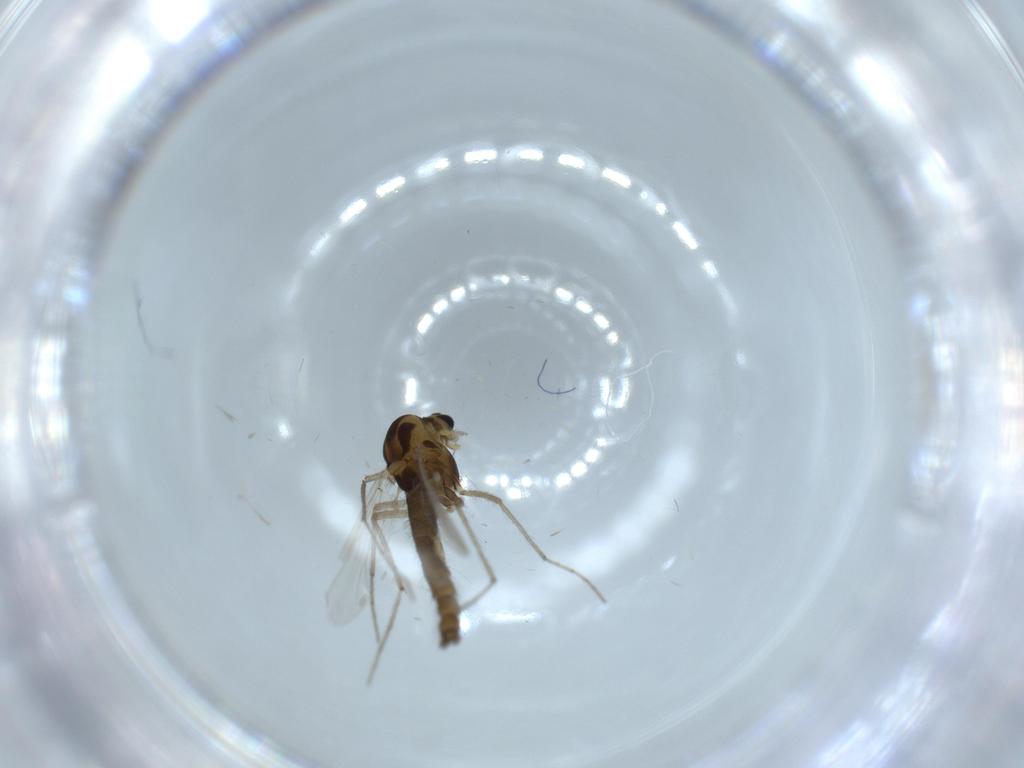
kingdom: Animalia
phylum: Arthropoda
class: Insecta
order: Diptera
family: Chironomidae
